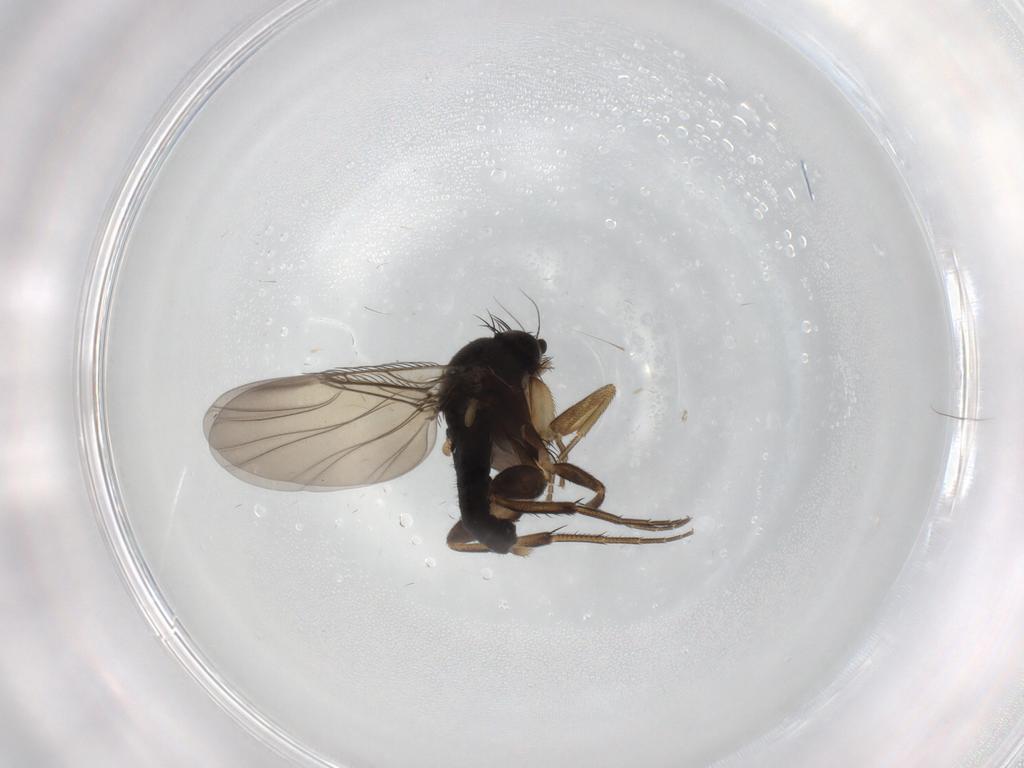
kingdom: Animalia
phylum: Arthropoda
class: Insecta
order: Diptera
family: Phoridae
